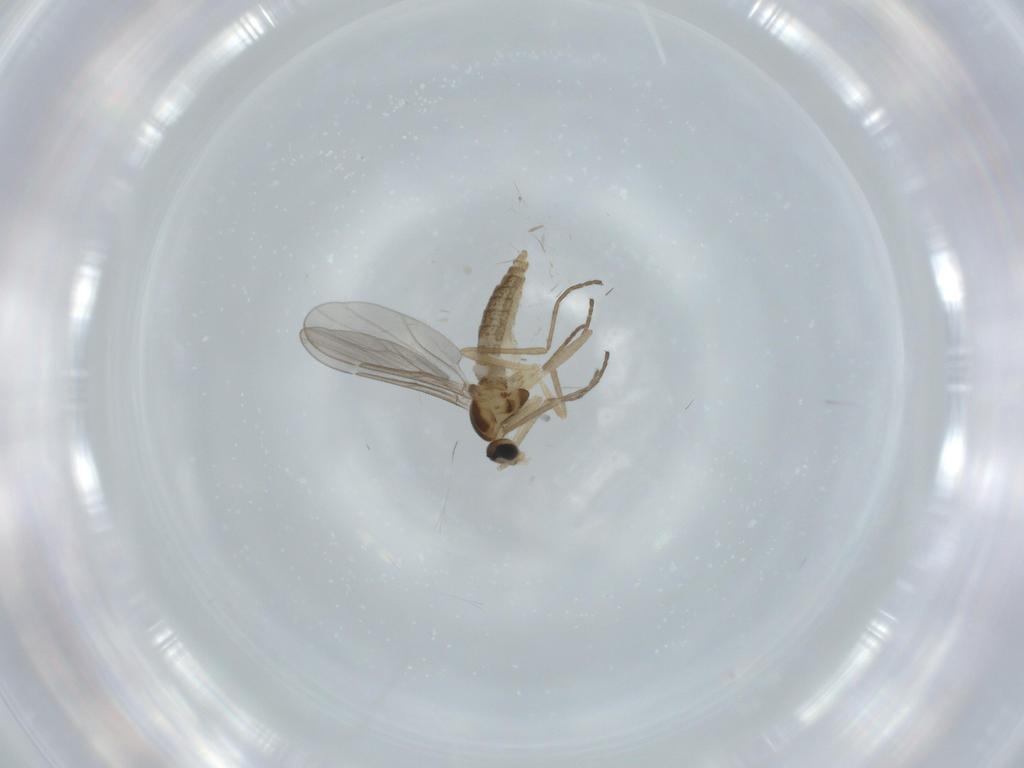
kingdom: Animalia
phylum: Arthropoda
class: Insecta
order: Diptera
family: Cecidomyiidae
